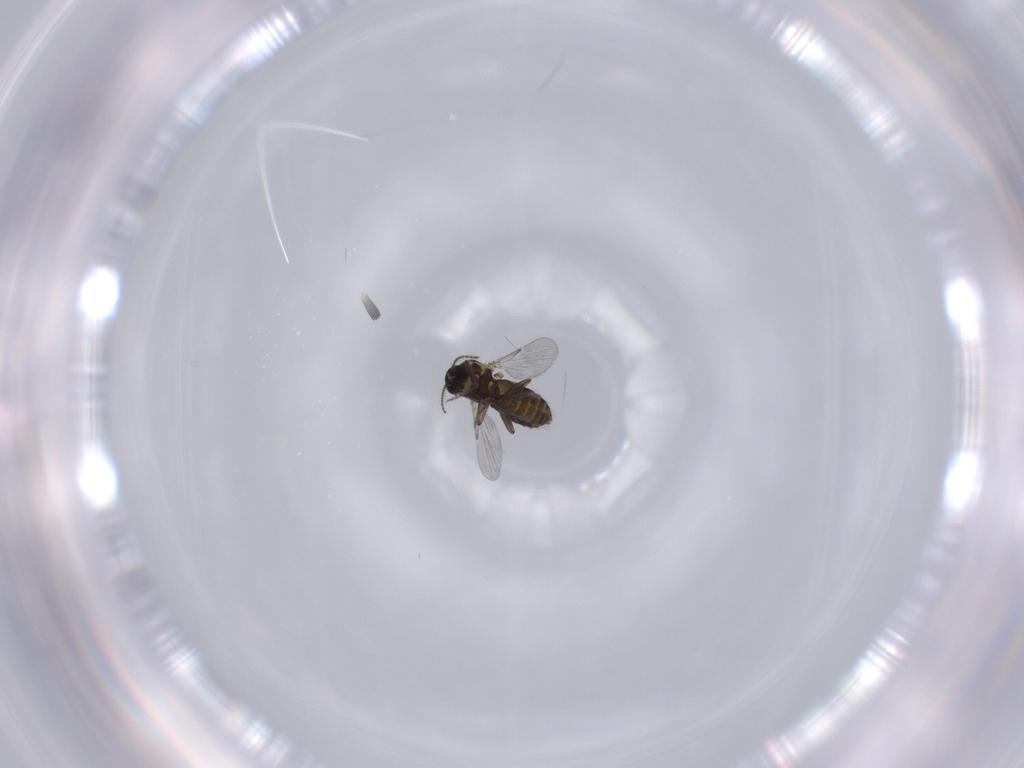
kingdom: Animalia
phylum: Arthropoda
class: Insecta
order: Diptera
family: Ceratopogonidae
